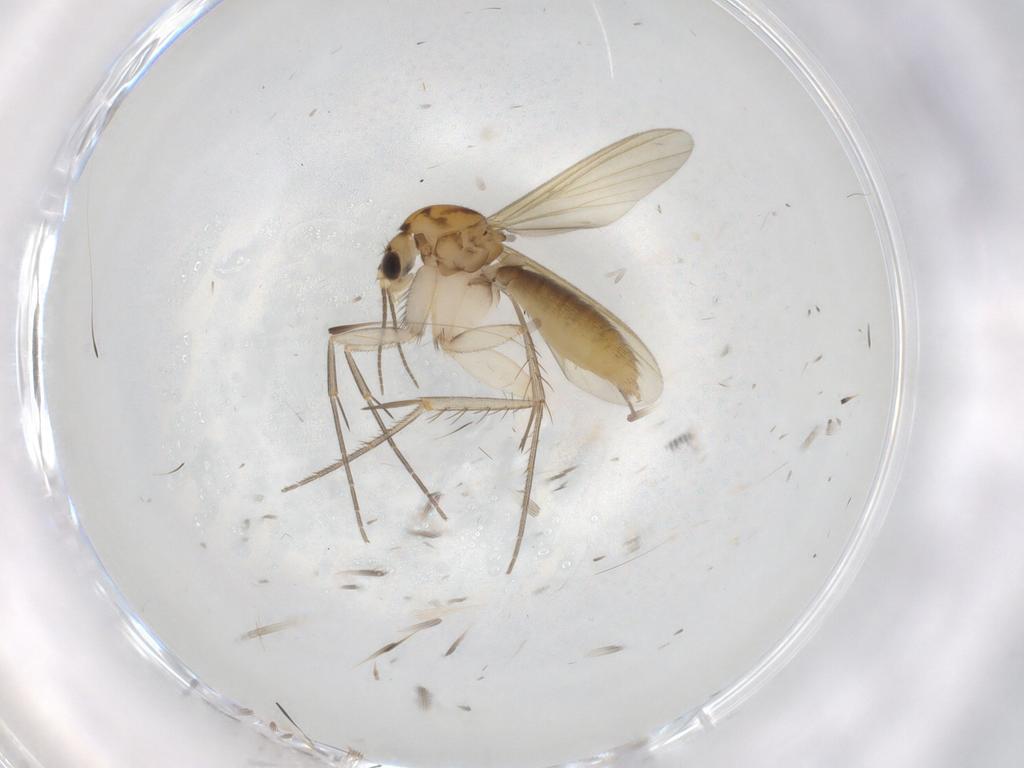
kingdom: Animalia
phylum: Arthropoda
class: Insecta
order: Diptera
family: Mycetophilidae
